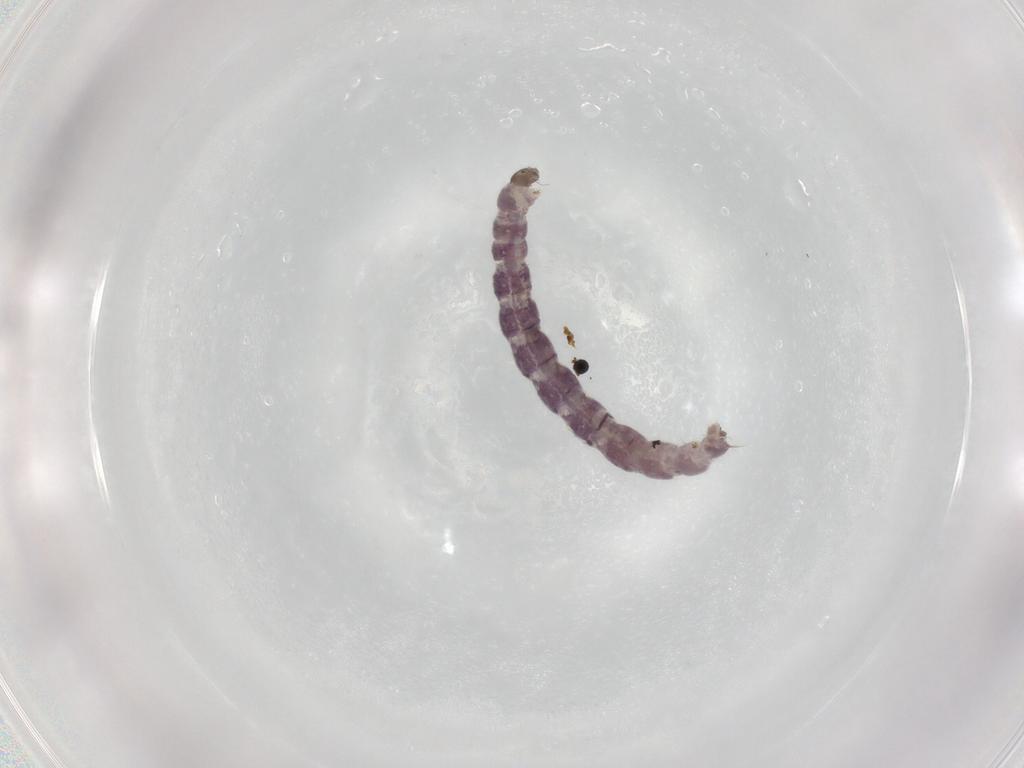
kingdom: Animalia
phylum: Arthropoda
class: Insecta
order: Diptera
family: Chironomidae
